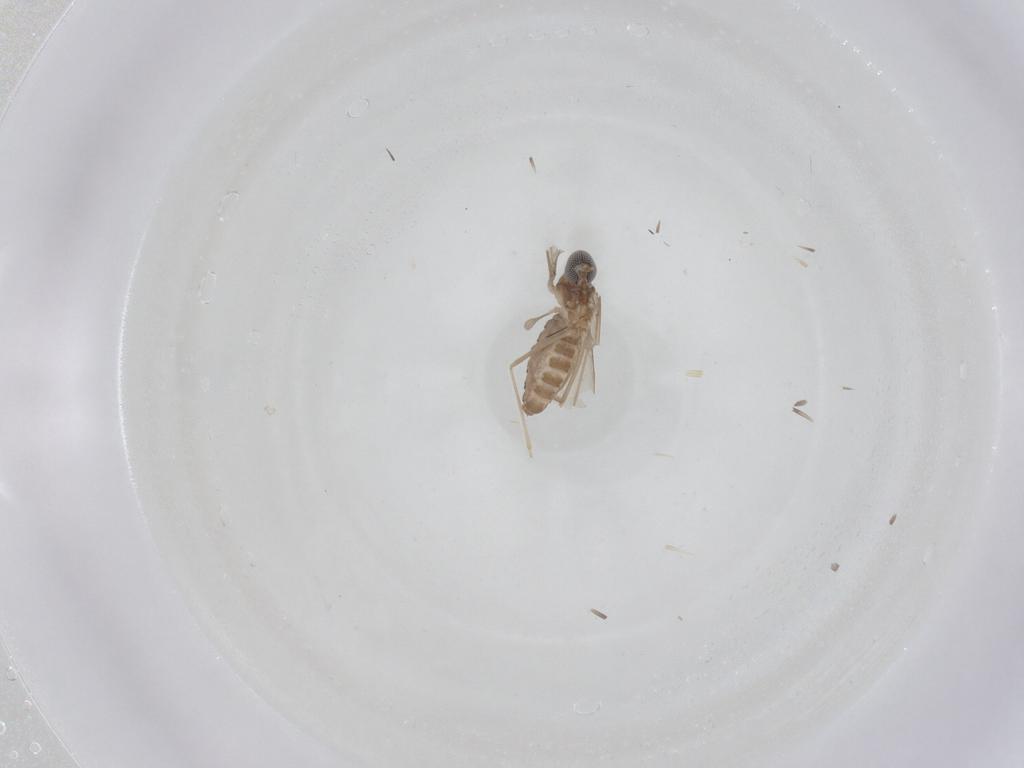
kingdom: Animalia
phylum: Arthropoda
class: Insecta
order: Diptera
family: Cecidomyiidae
